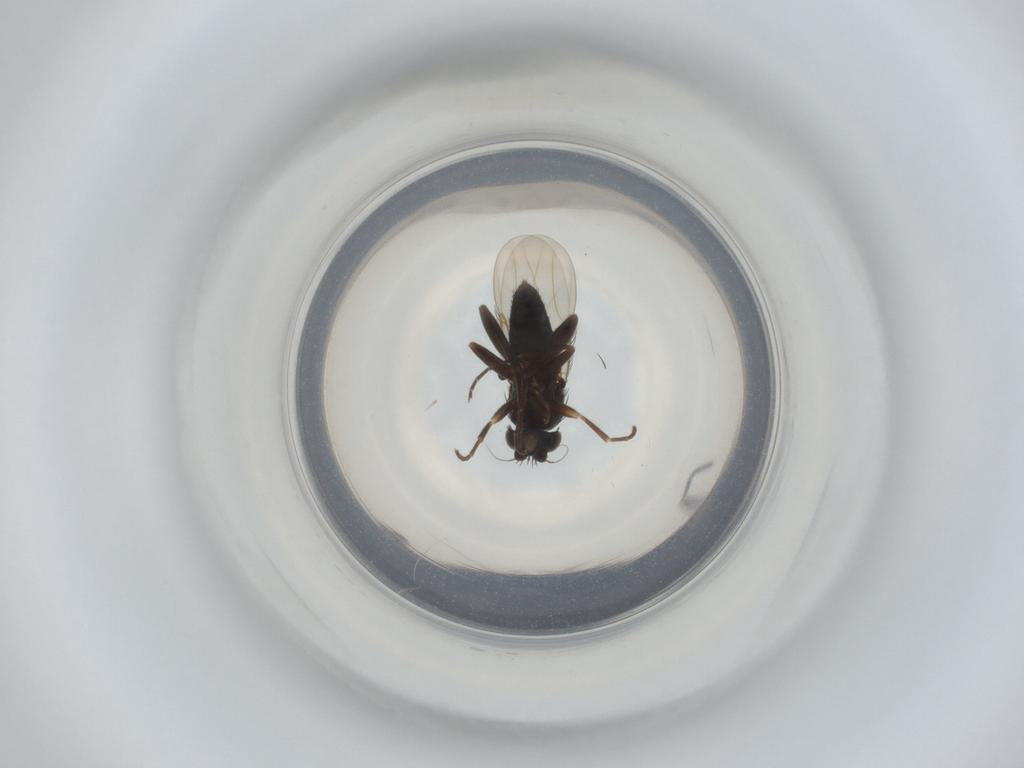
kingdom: Animalia
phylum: Arthropoda
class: Insecta
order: Diptera
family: Phoridae
